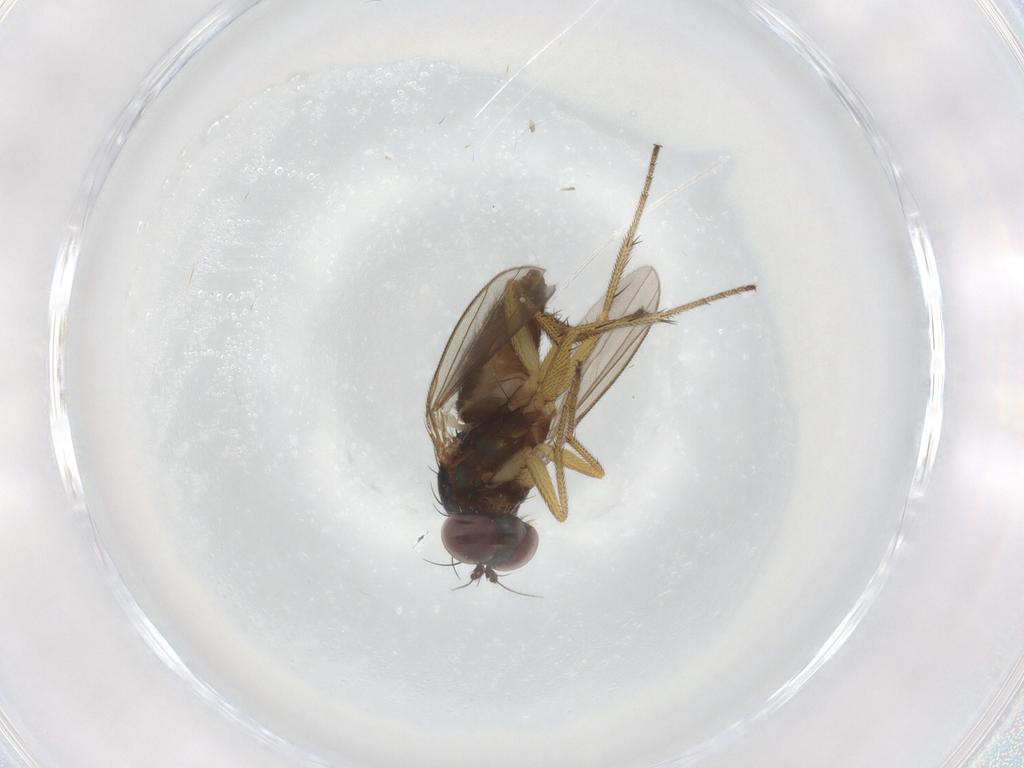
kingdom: Animalia
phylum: Arthropoda
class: Insecta
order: Diptera
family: Dolichopodidae
